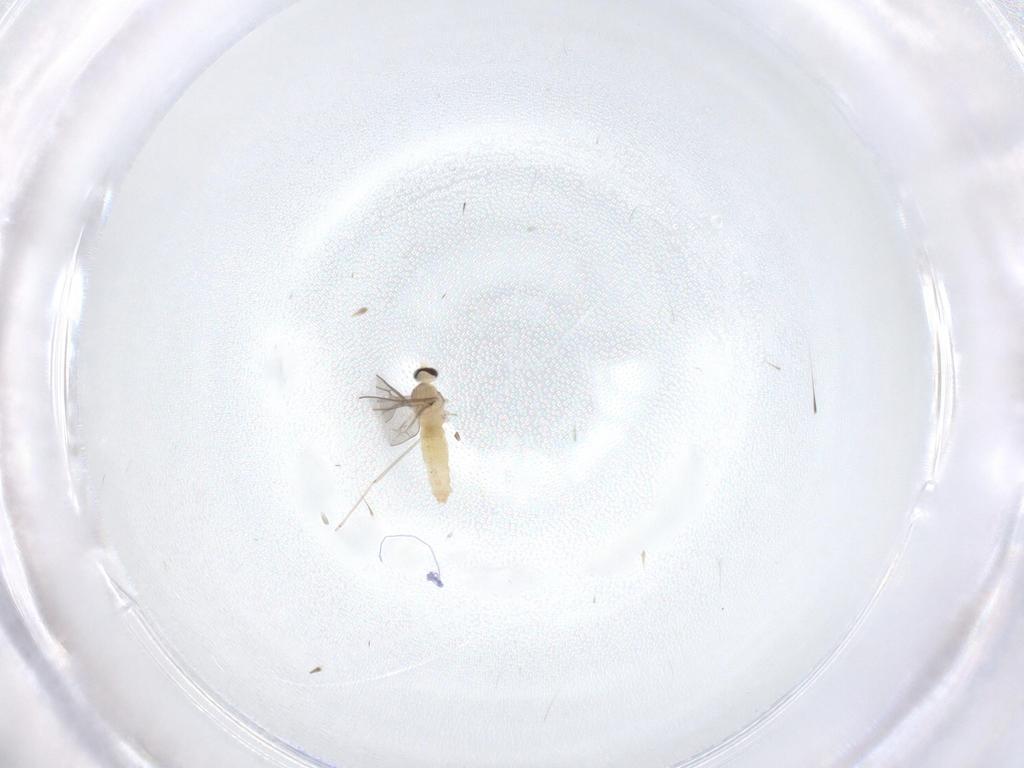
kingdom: Animalia
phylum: Arthropoda
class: Insecta
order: Diptera
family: Cecidomyiidae
